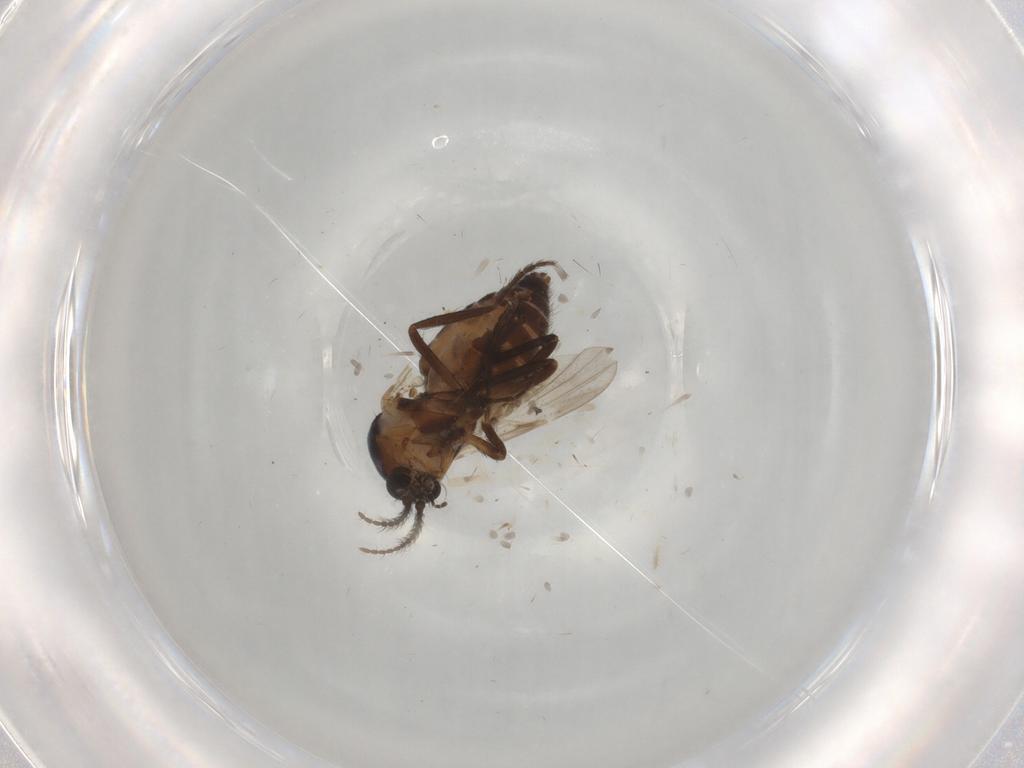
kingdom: Animalia
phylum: Arthropoda
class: Insecta
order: Diptera
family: Ceratopogonidae
